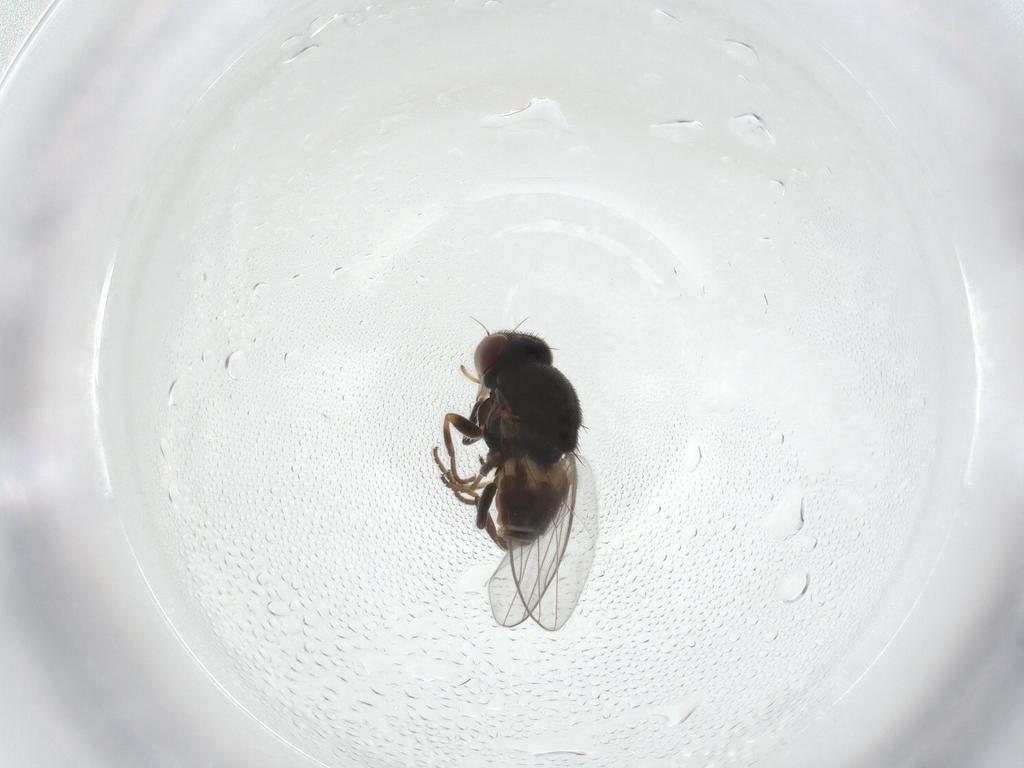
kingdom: Animalia
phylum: Arthropoda
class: Insecta
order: Diptera
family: Chloropidae
